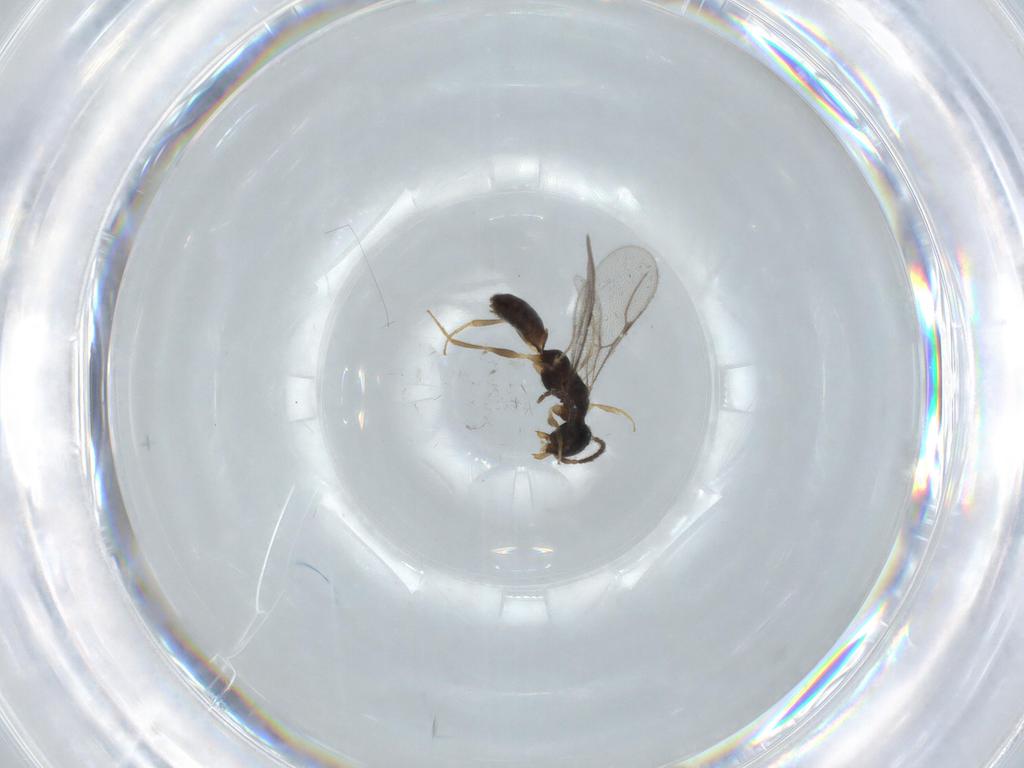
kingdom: Animalia
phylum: Arthropoda
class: Insecta
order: Hymenoptera
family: Bethylidae
